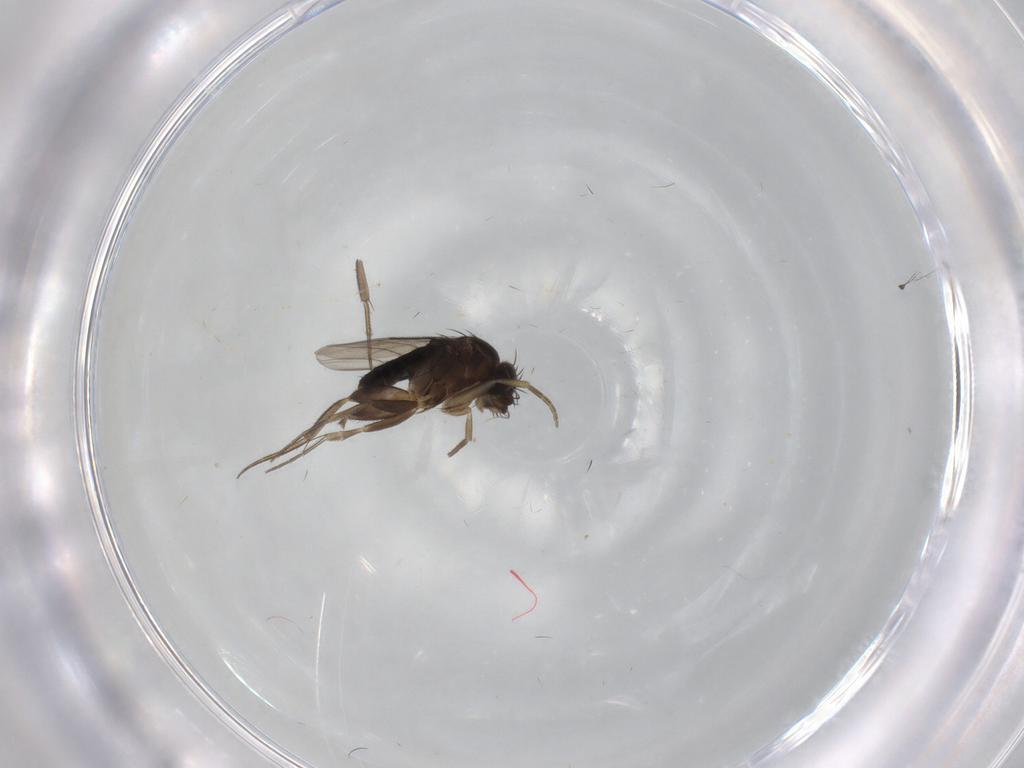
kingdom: Animalia
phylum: Arthropoda
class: Insecta
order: Diptera
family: Phoridae
